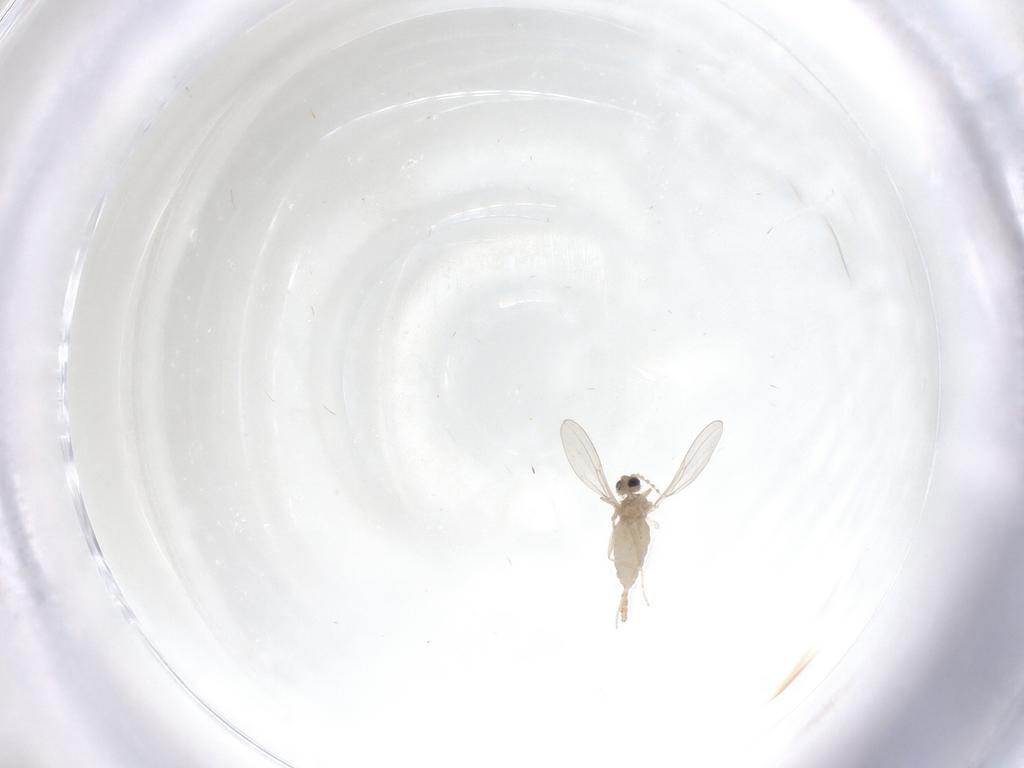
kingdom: Animalia
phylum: Arthropoda
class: Insecta
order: Diptera
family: Cecidomyiidae
